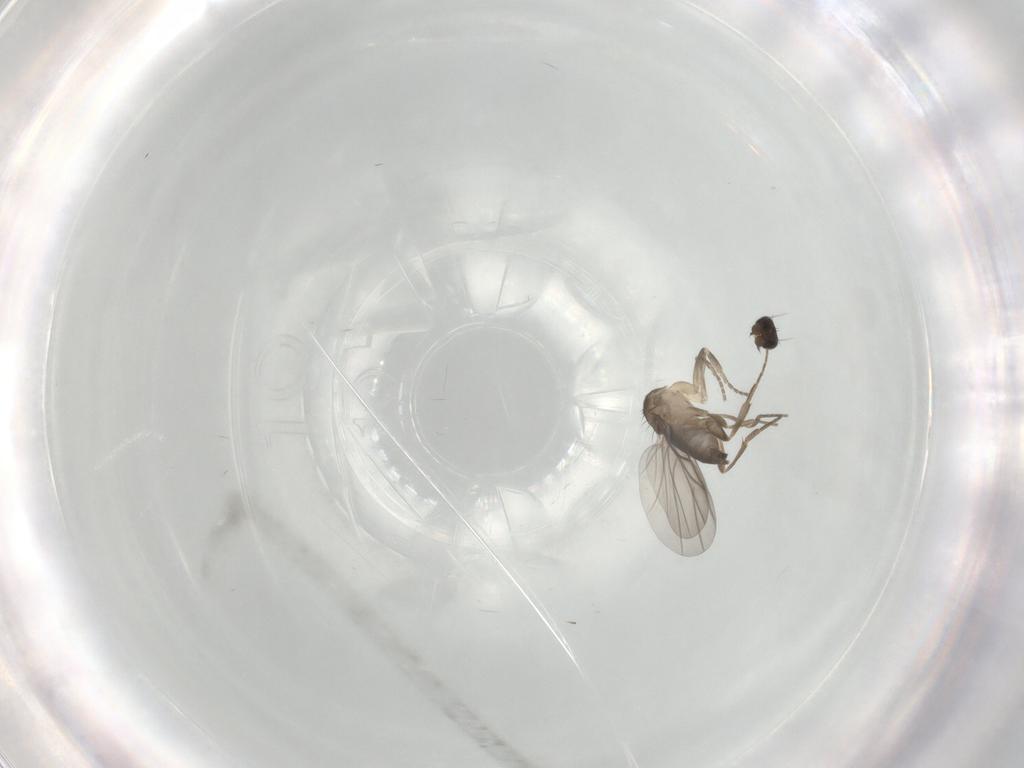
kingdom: Animalia
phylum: Arthropoda
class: Insecta
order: Diptera
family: Phoridae
